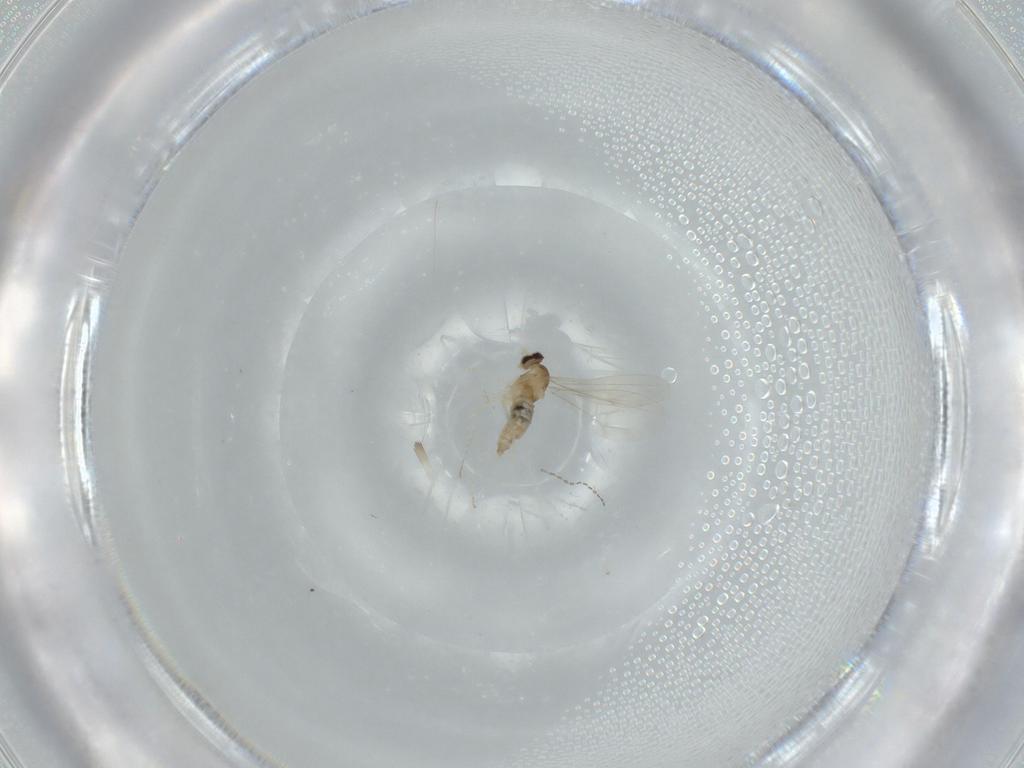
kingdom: Animalia
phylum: Arthropoda
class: Insecta
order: Diptera
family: Cecidomyiidae
